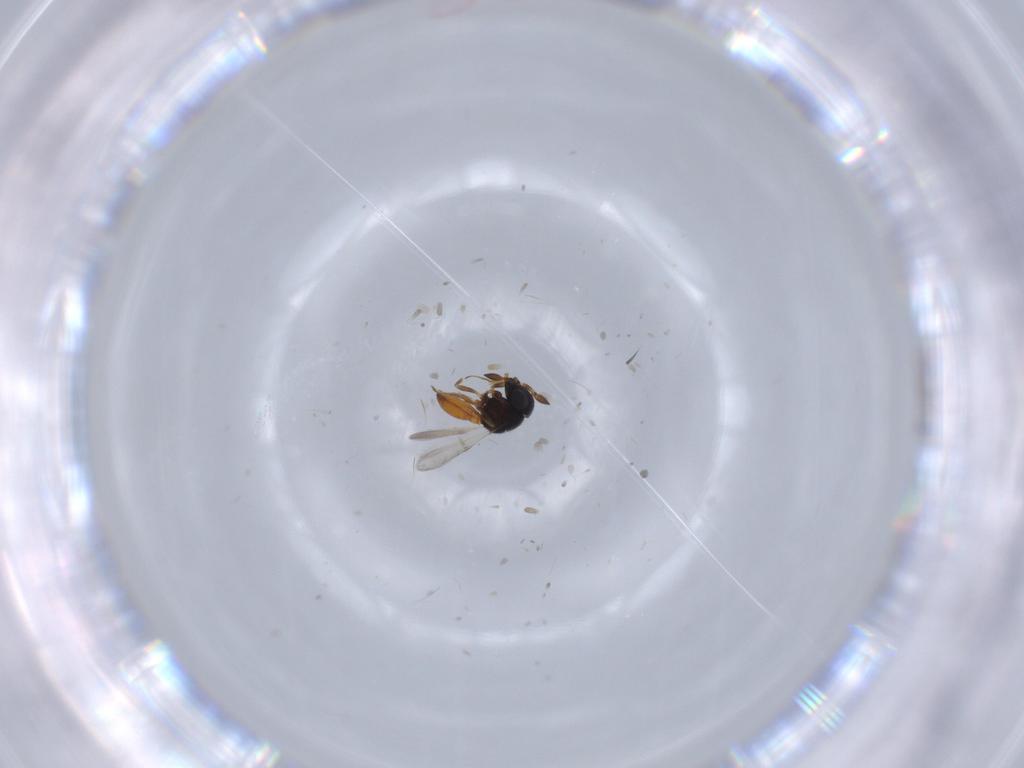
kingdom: Animalia
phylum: Arthropoda
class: Insecta
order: Hymenoptera
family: Scelionidae
